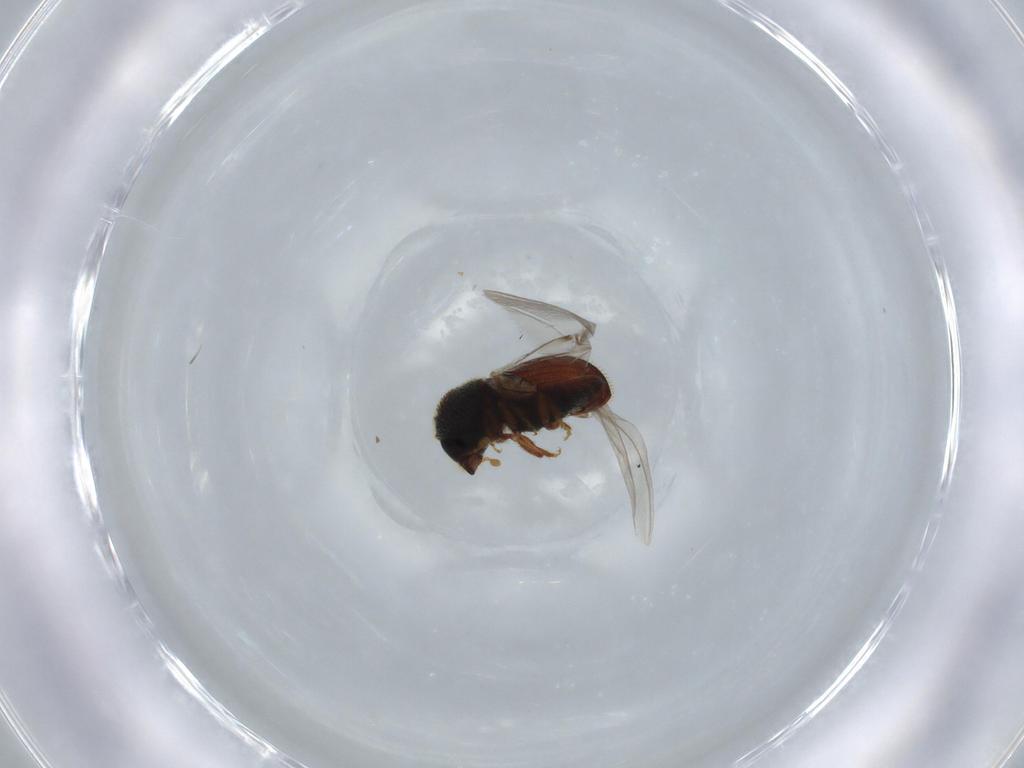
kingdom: Animalia
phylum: Arthropoda
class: Insecta
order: Coleoptera
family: Curculionidae
